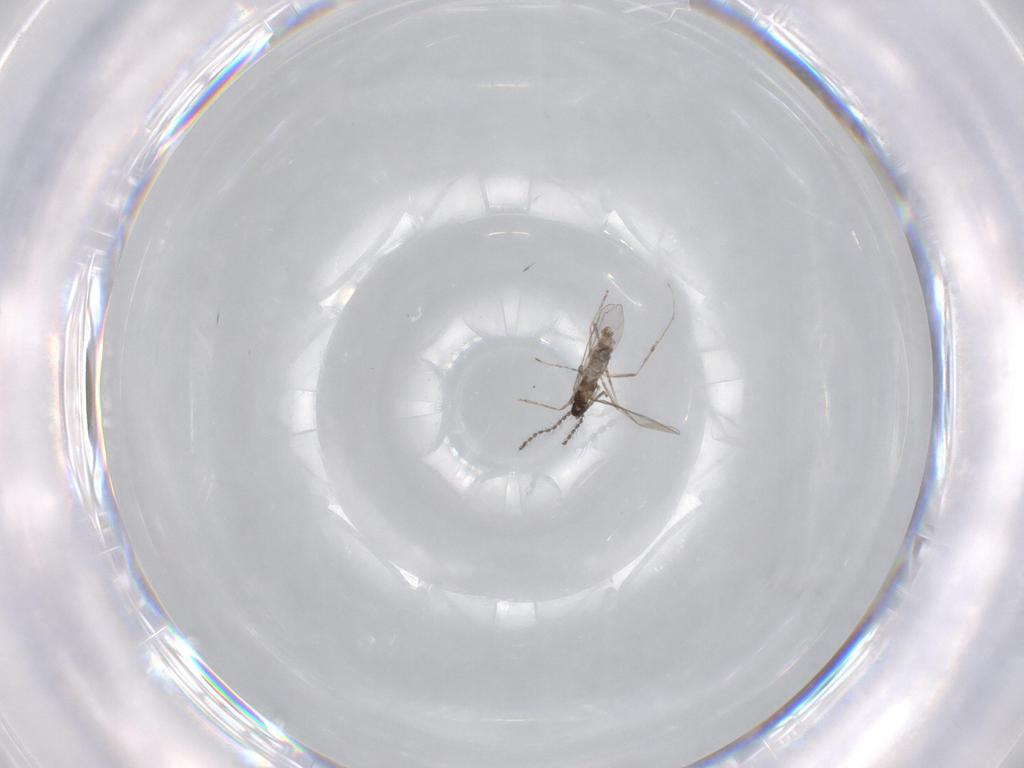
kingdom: Animalia
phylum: Arthropoda
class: Insecta
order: Diptera
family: Cecidomyiidae
